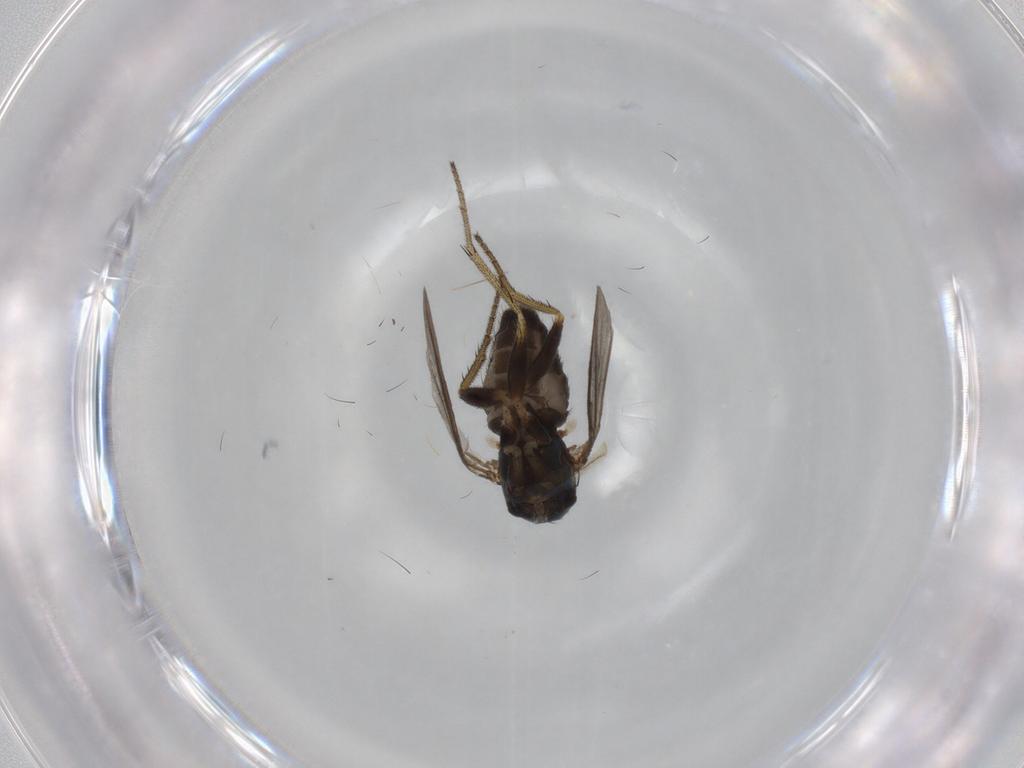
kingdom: Animalia
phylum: Arthropoda
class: Insecta
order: Diptera
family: Dolichopodidae
